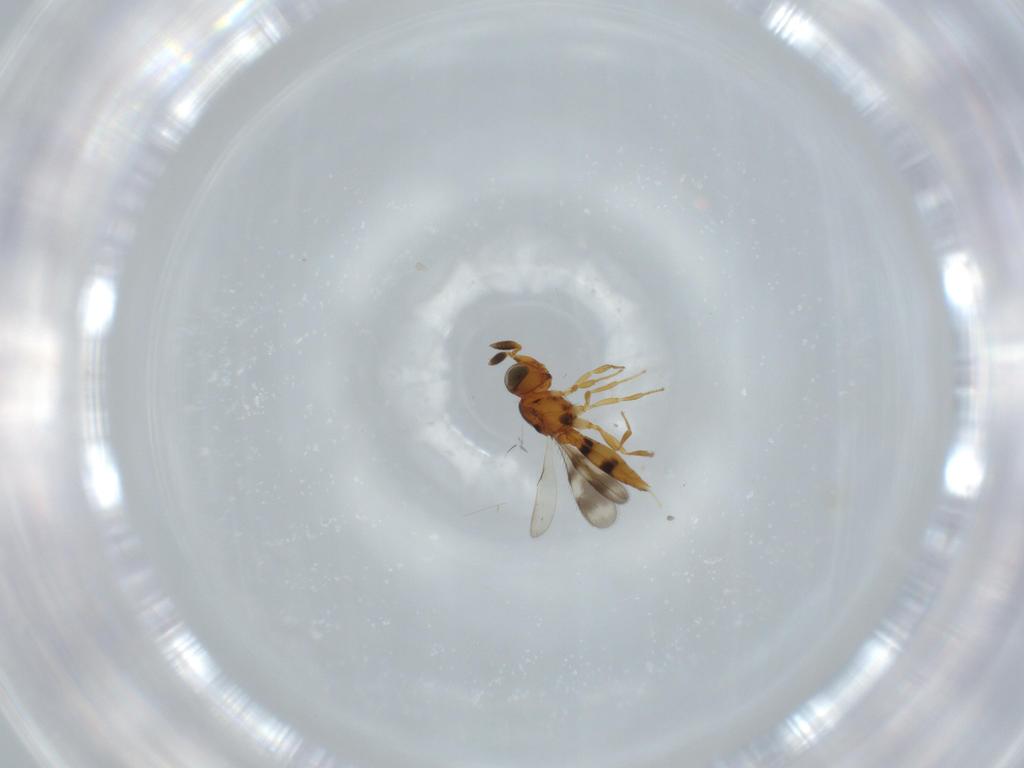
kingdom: Animalia
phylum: Arthropoda
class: Insecta
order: Hymenoptera
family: Scelionidae
